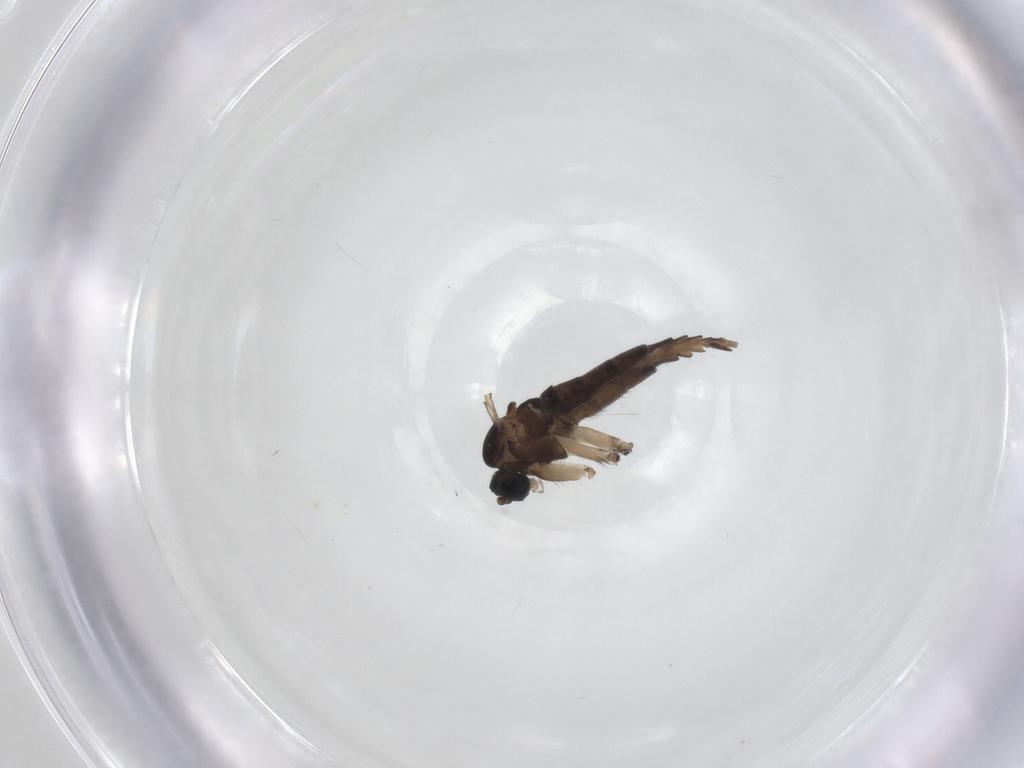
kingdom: Animalia
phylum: Arthropoda
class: Insecta
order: Diptera
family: Sciaridae
